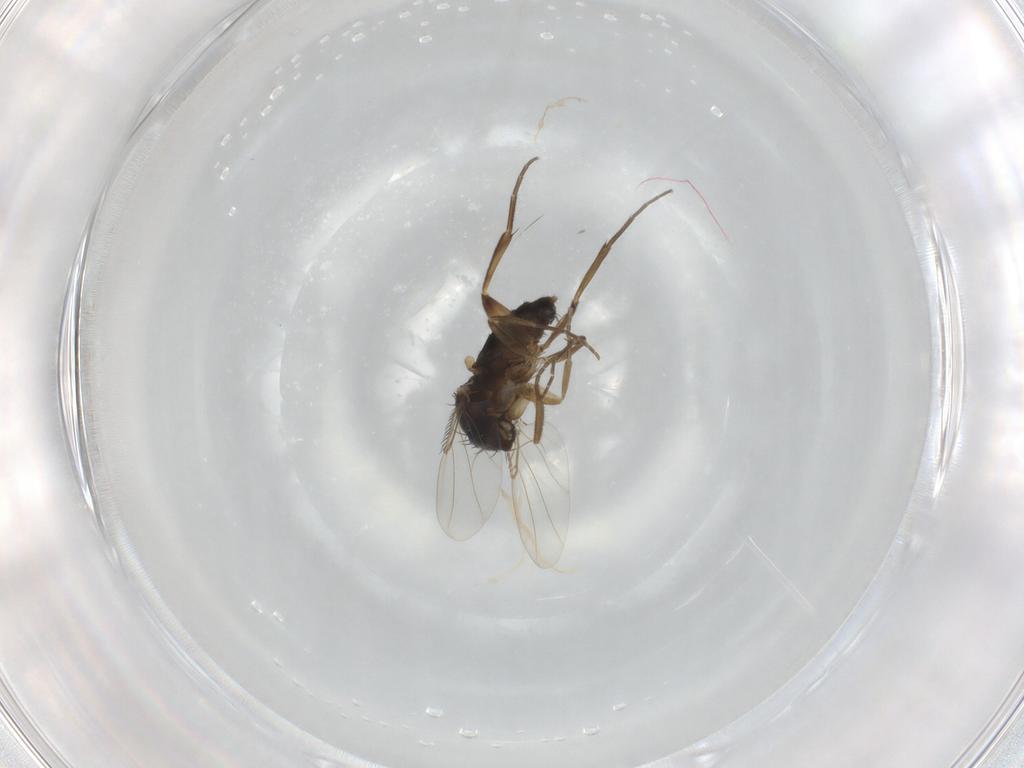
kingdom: Animalia
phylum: Arthropoda
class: Insecta
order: Diptera
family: Phoridae
